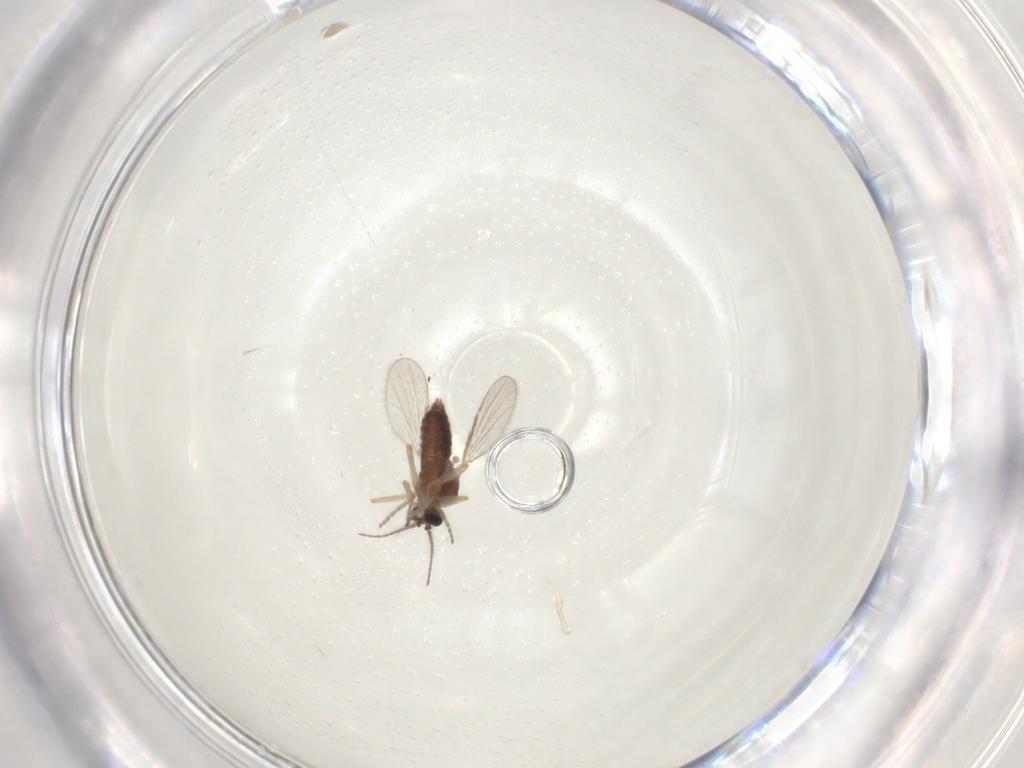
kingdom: Animalia
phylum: Arthropoda
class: Insecta
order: Diptera
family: Ceratopogonidae
